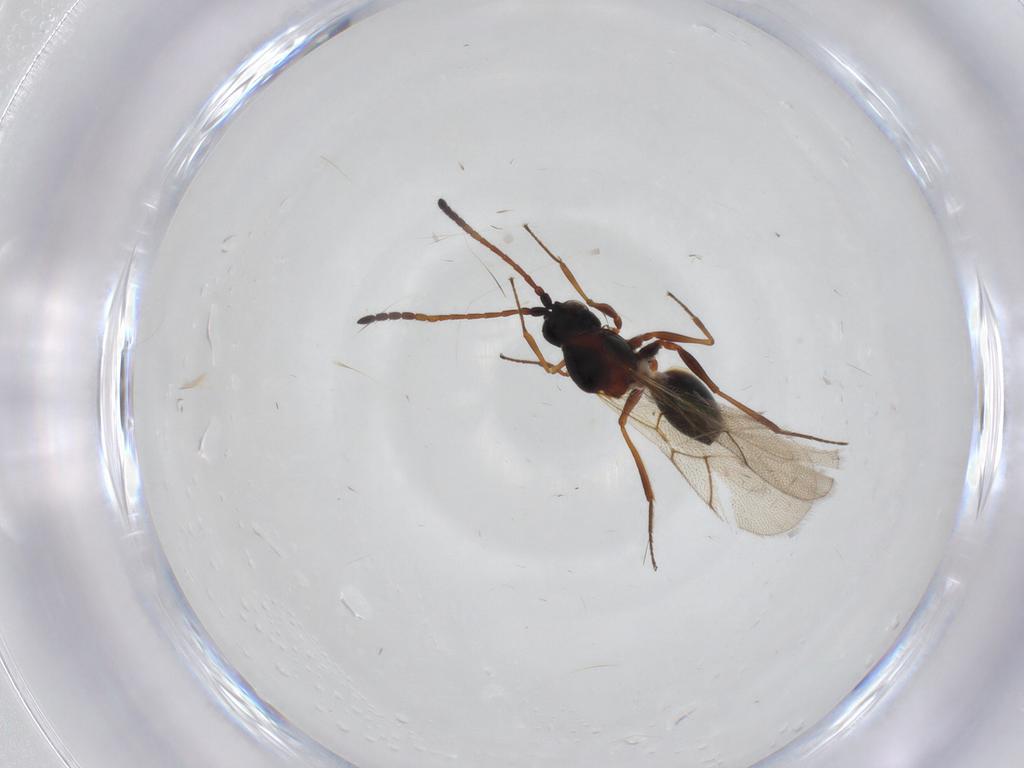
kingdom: Animalia
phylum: Arthropoda
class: Insecta
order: Hymenoptera
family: Figitidae
